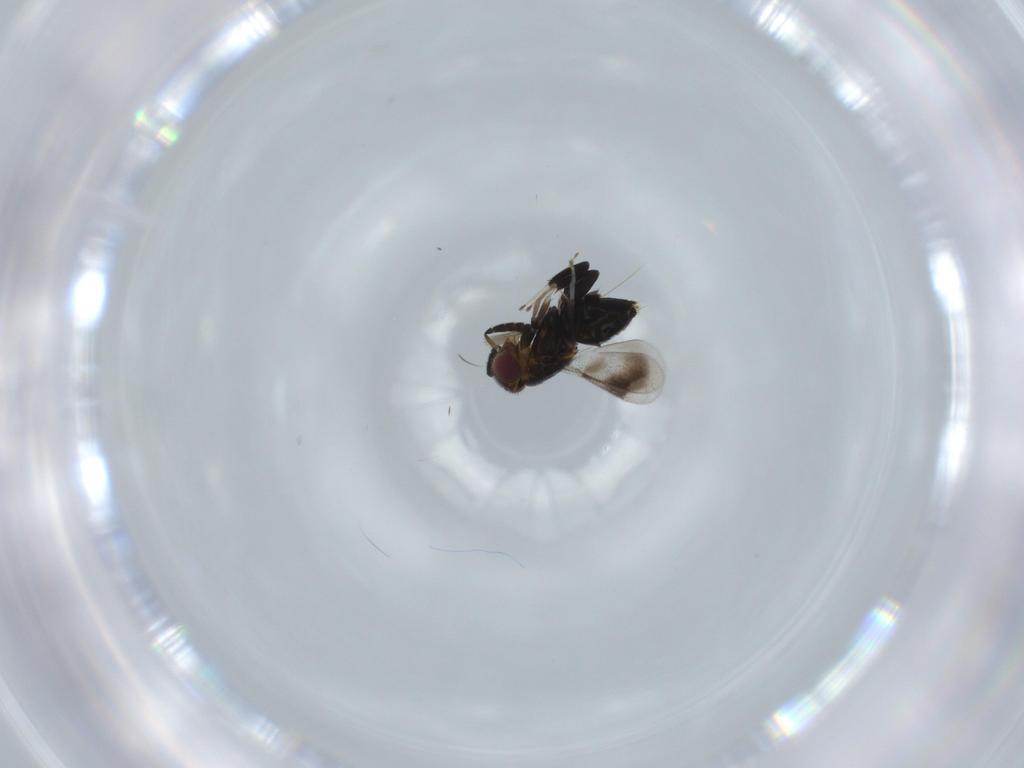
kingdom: Animalia
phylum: Arthropoda
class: Insecta
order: Hymenoptera
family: Aphelinidae
